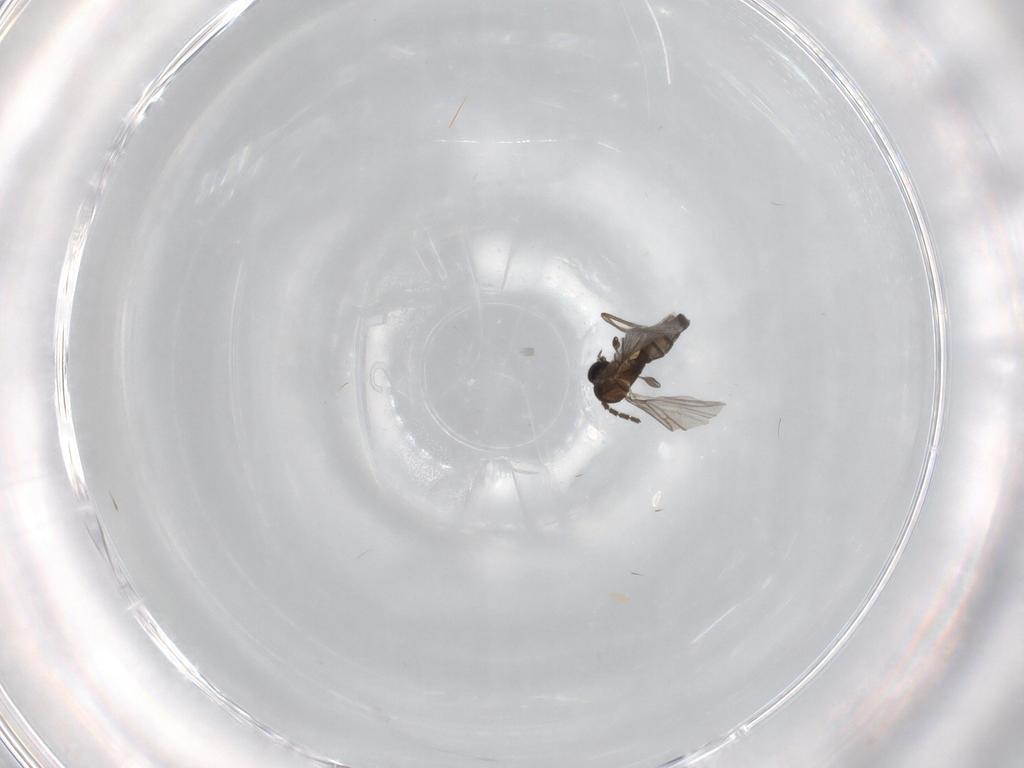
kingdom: Animalia
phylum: Arthropoda
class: Insecta
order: Diptera
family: Sciaridae
